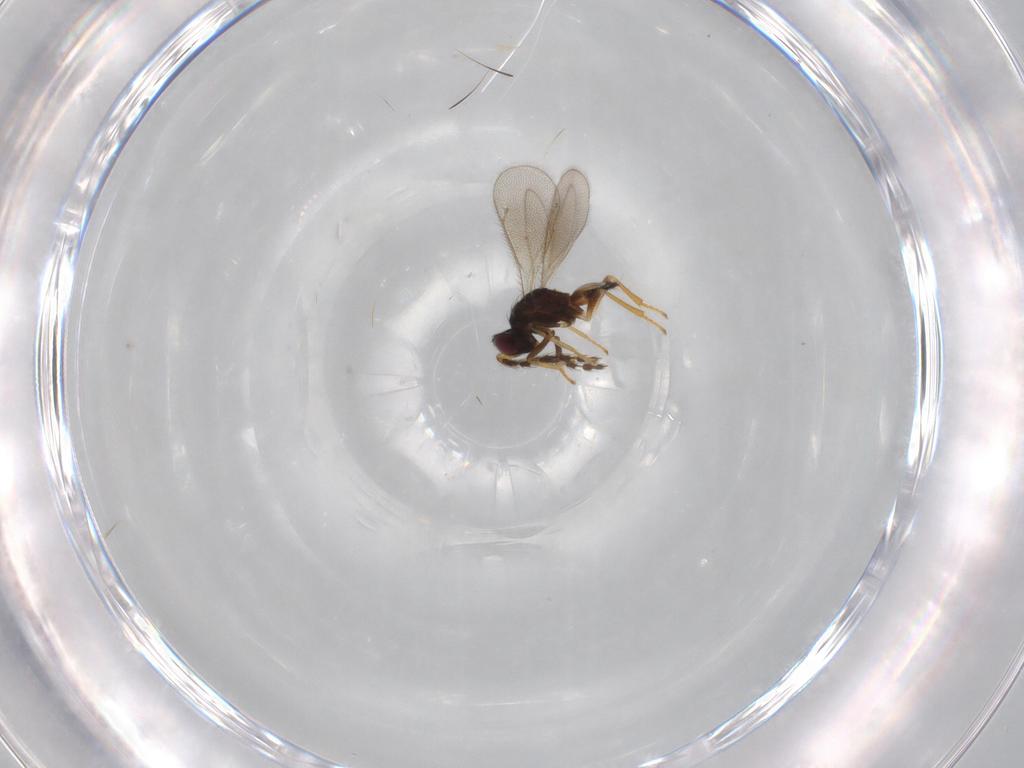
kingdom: Animalia
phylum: Arthropoda
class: Insecta
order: Hymenoptera
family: Eulophidae
